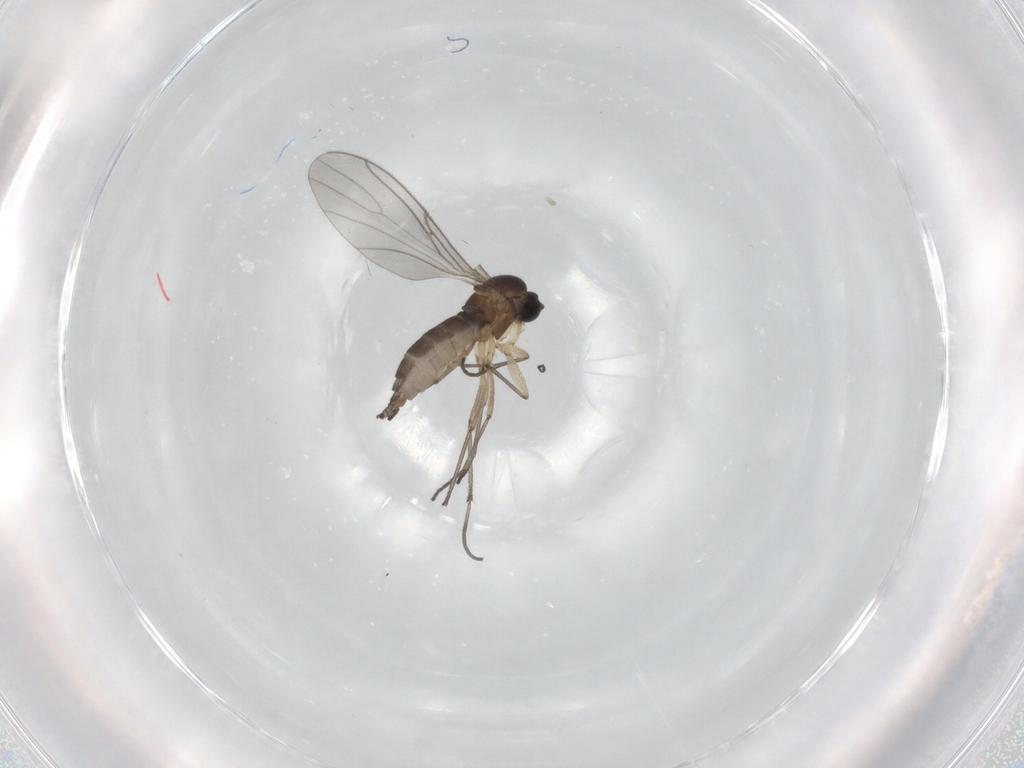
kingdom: Animalia
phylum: Arthropoda
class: Insecta
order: Diptera
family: Sciaridae
